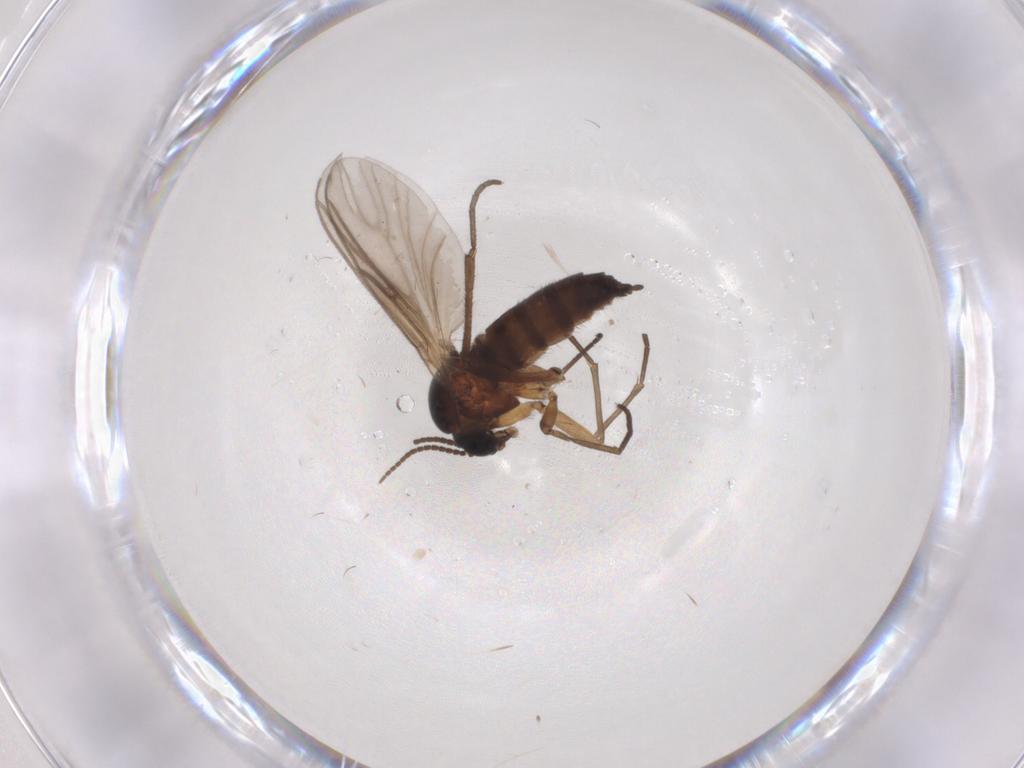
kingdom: Animalia
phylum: Arthropoda
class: Insecta
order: Diptera
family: Sciaridae
